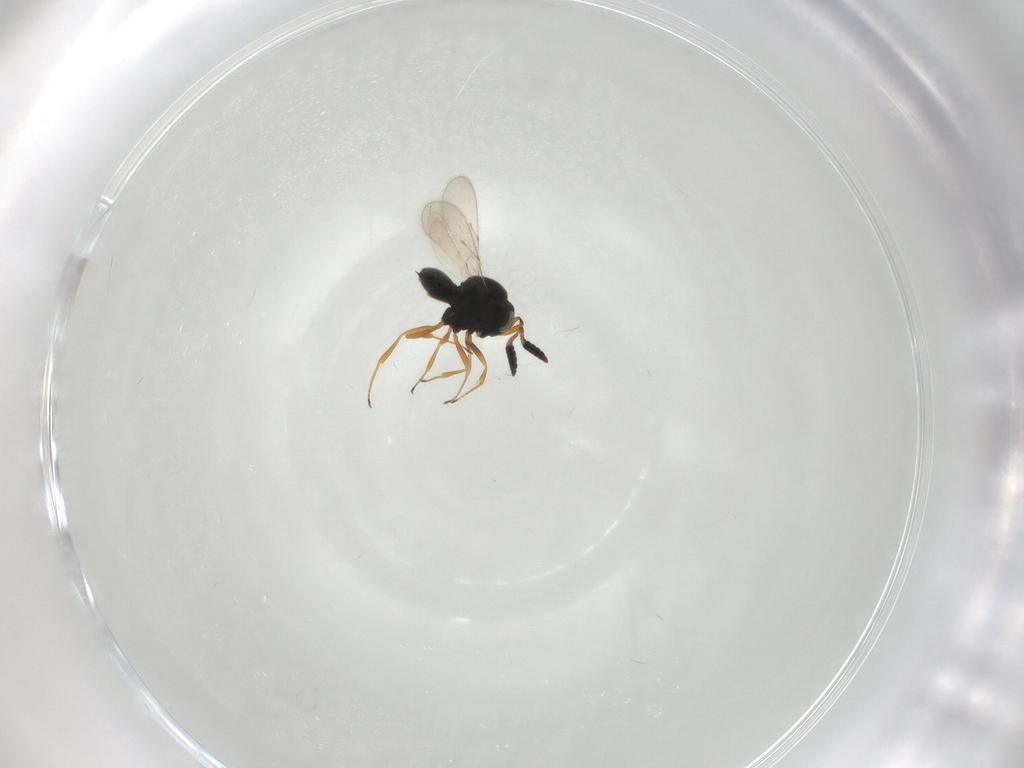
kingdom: Animalia
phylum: Arthropoda
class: Insecta
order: Hymenoptera
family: Scelionidae
